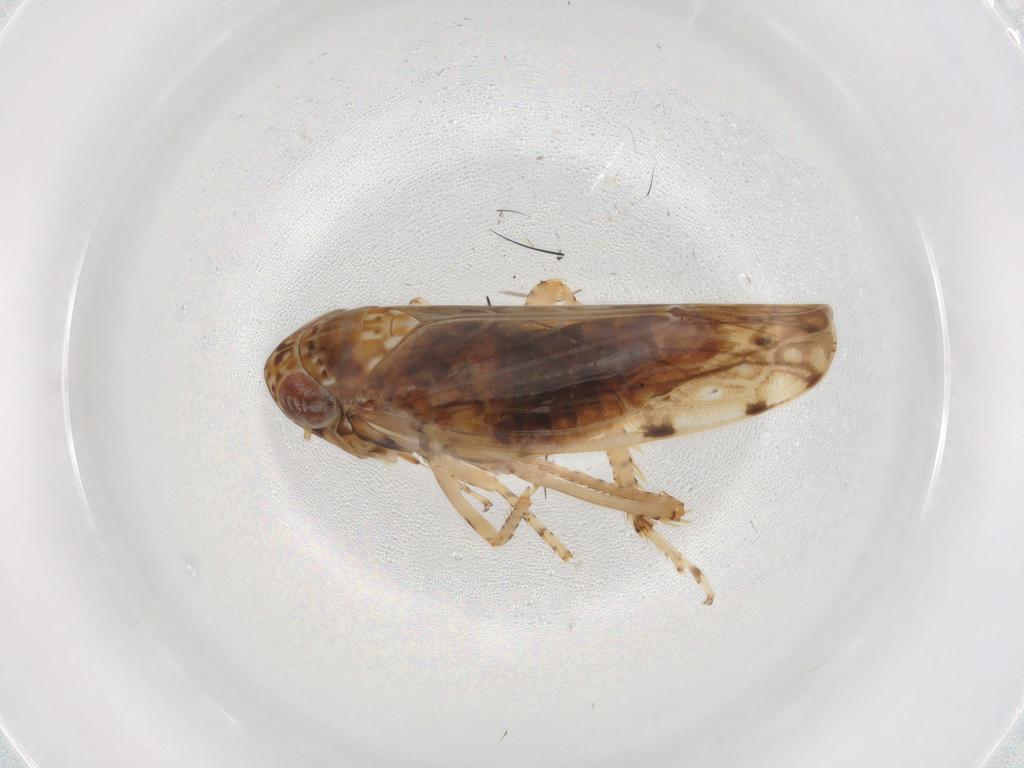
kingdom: Animalia
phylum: Arthropoda
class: Insecta
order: Hemiptera
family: Cicadellidae
